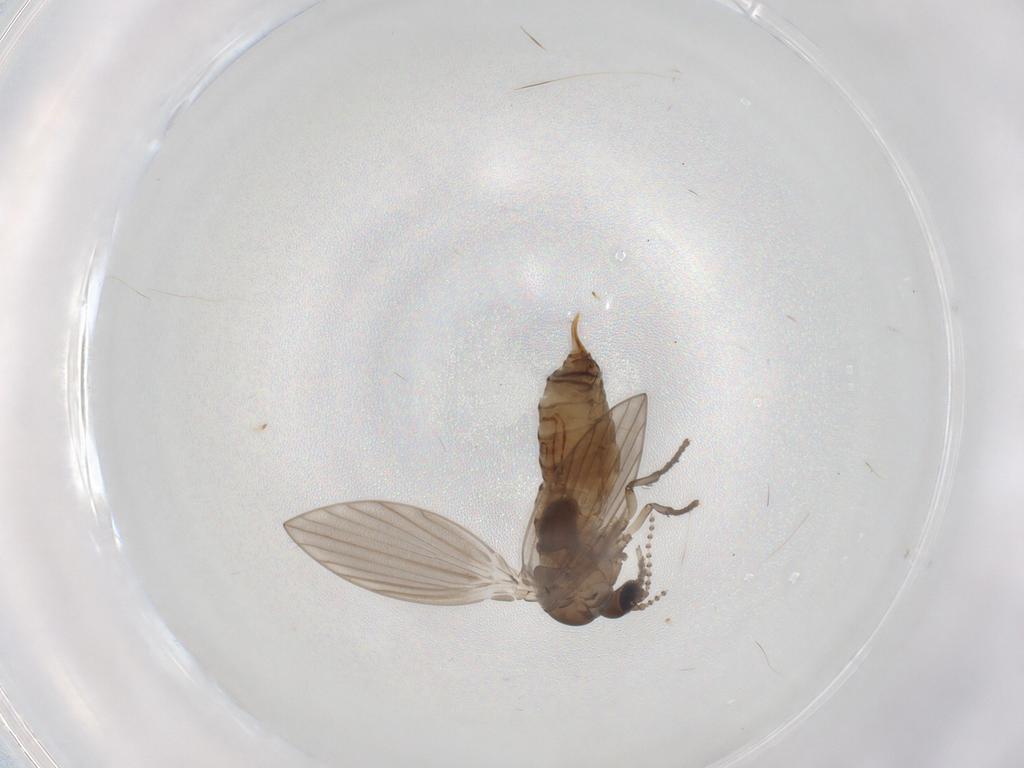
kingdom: Animalia
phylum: Arthropoda
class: Insecta
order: Diptera
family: Psychodidae
